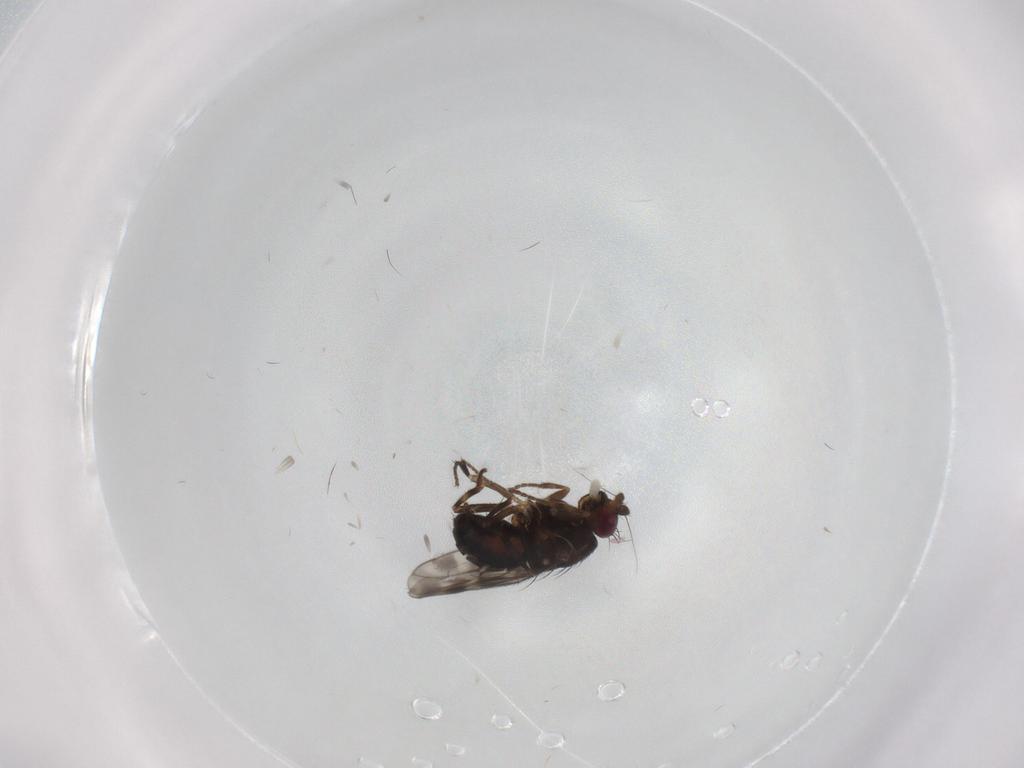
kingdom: Animalia
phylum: Arthropoda
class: Insecta
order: Diptera
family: Sphaeroceridae
